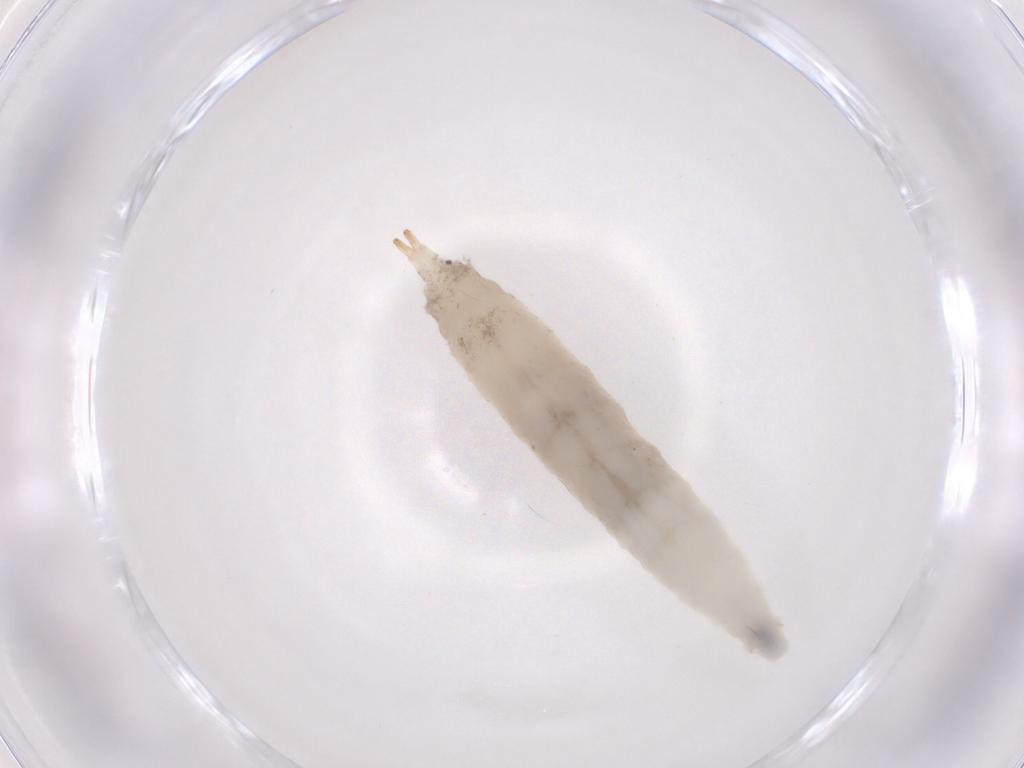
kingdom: Animalia
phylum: Arthropoda
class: Insecta
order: Diptera
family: Drosophilidae
